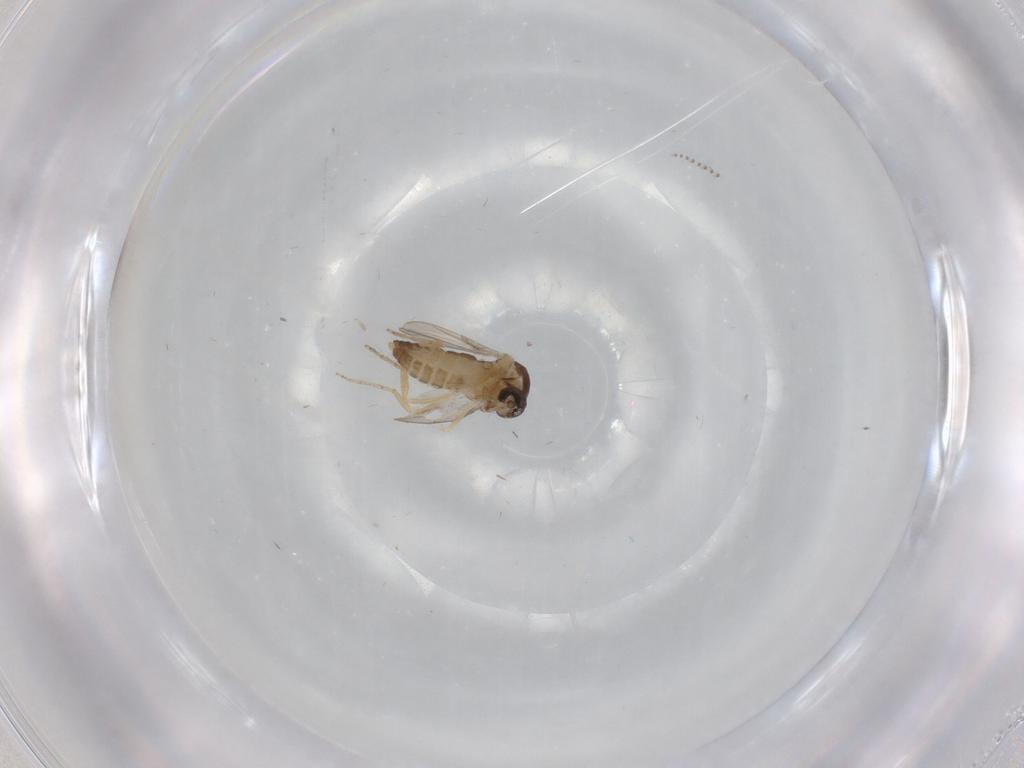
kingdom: Animalia
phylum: Arthropoda
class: Insecta
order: Diptera
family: Ceratopogonidae
